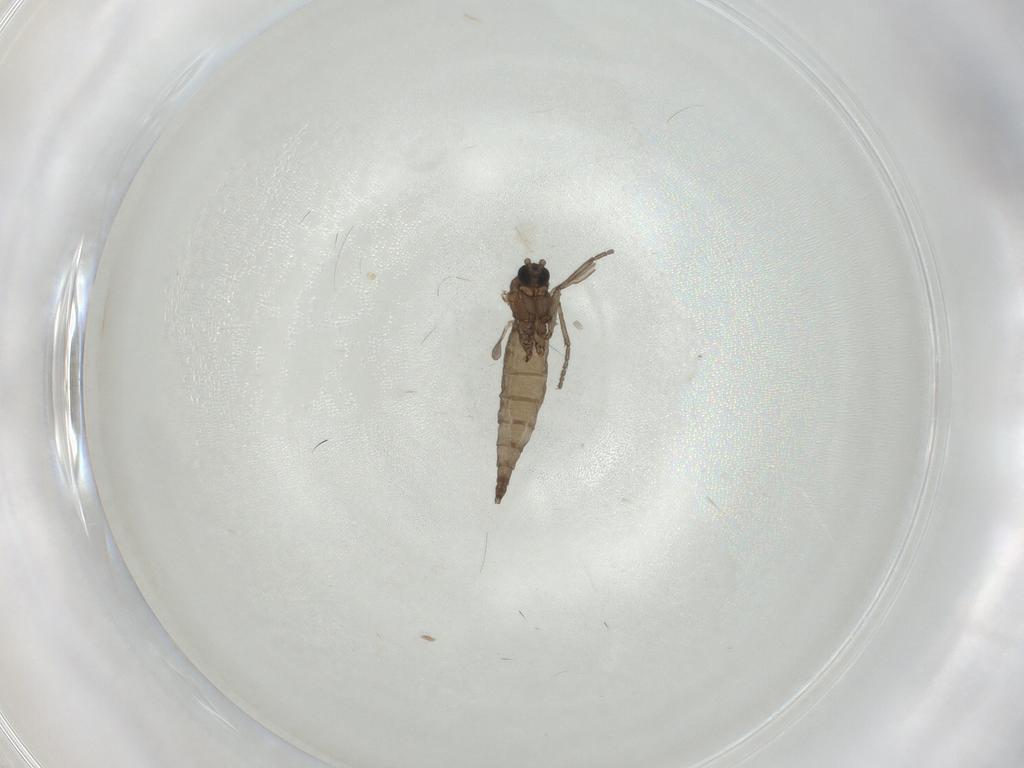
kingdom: Animalia
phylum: Arthropoda
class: Insecta
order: Diptera
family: Sciaridae
